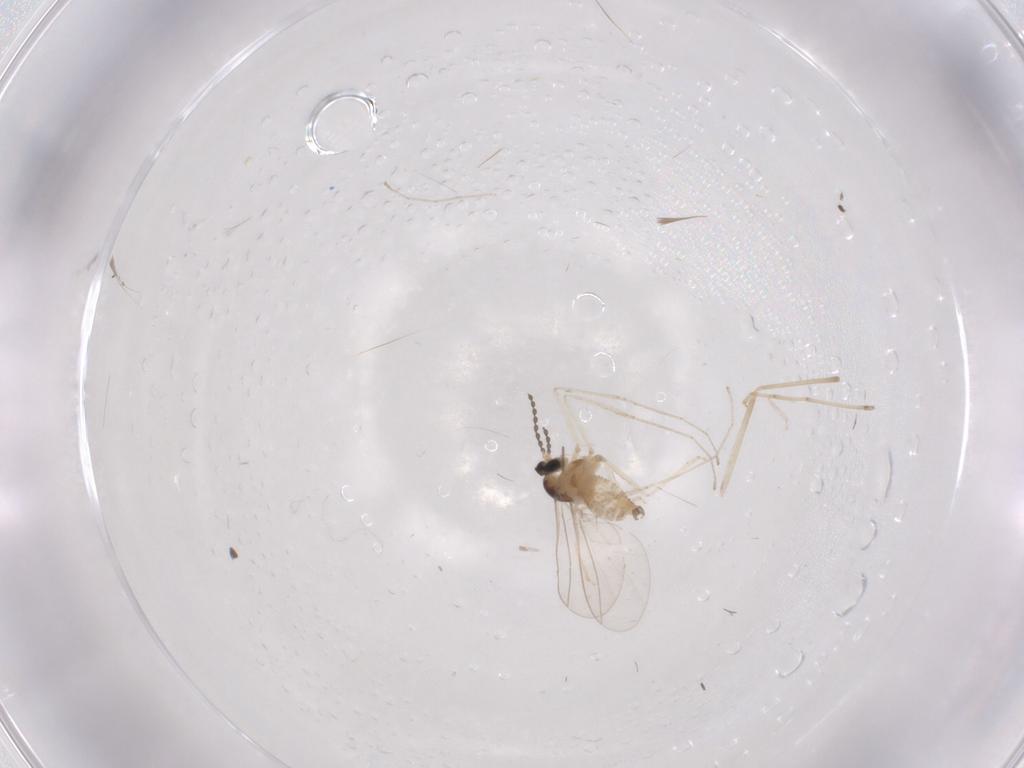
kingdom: Animalia
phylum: Arthropoda
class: Insecta
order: Diptera
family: Cecidomyiidae
